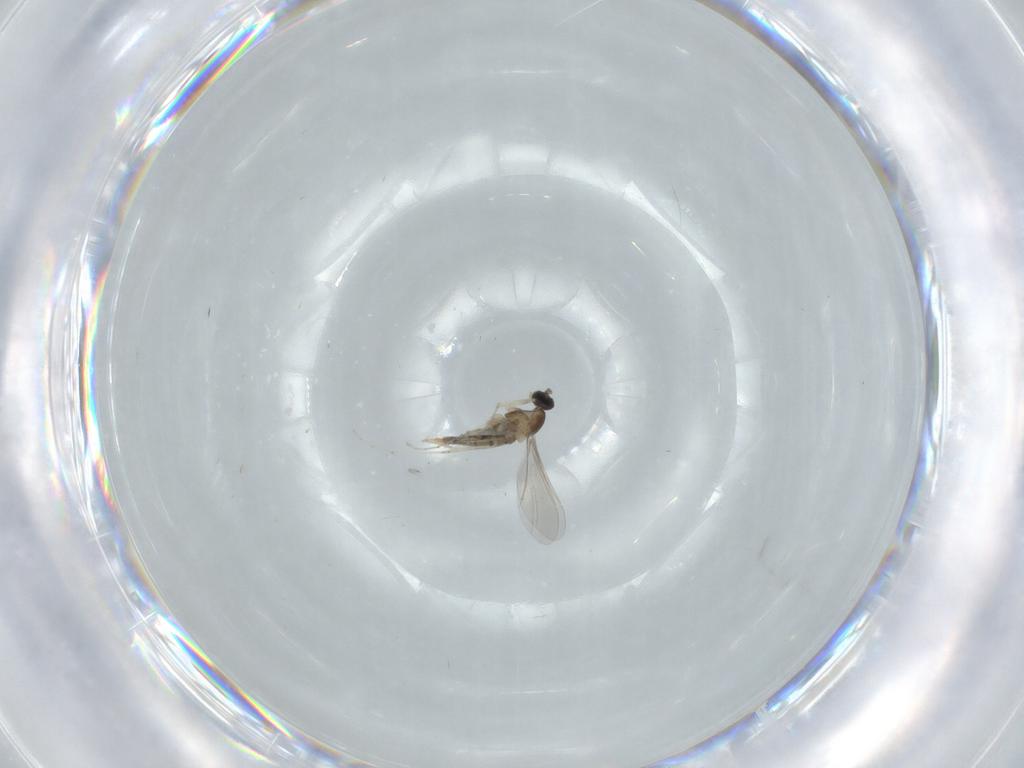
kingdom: Animalia
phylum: Arthropoda
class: Insecta
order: Diptera
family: Cecidomyiidae
